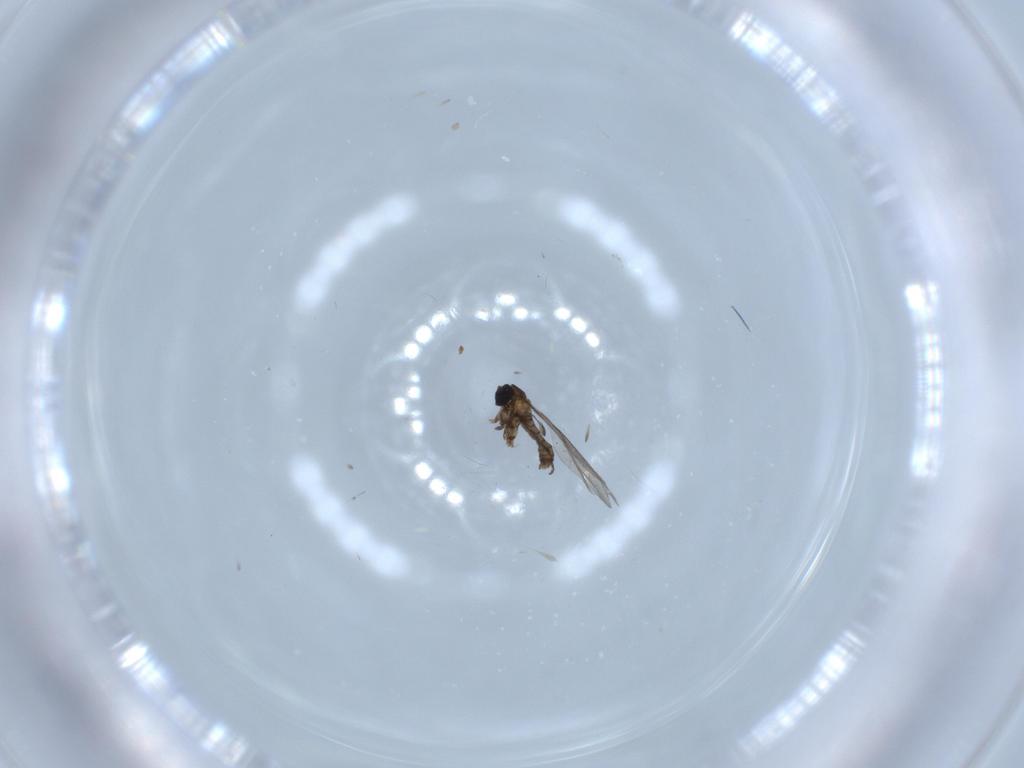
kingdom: Animalia
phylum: Arthropoda
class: Insecta
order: Diptera
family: Sciaridae
